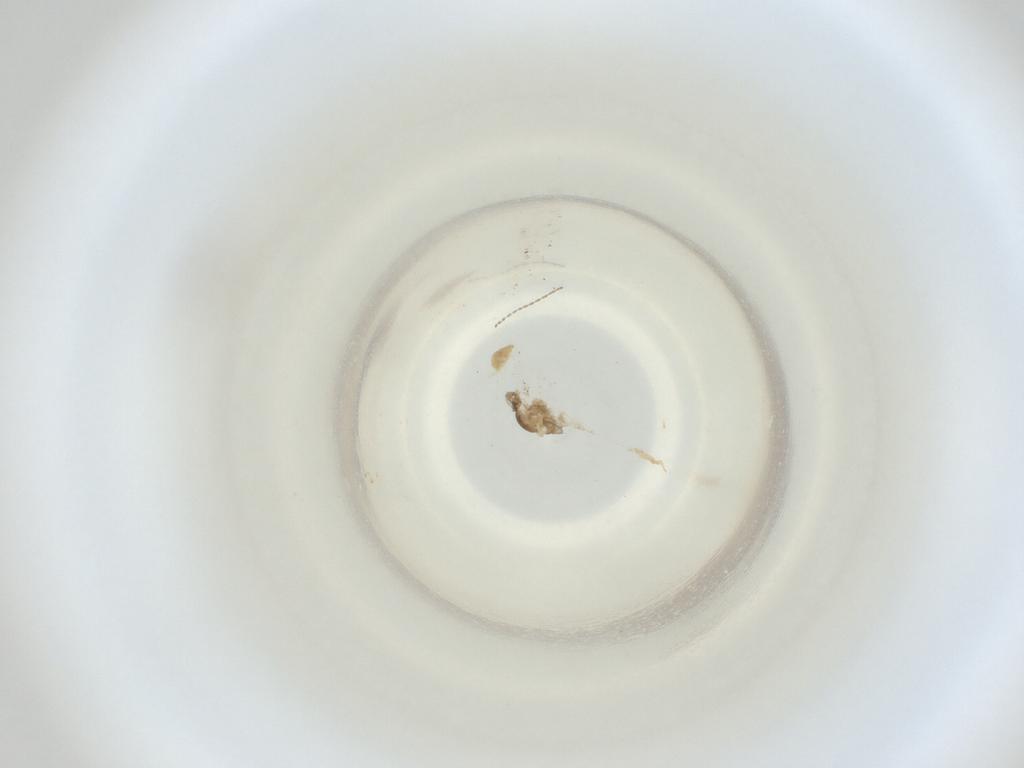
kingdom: Animalia
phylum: Arthropoda
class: Insecta
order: Diptera
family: Cecidomyiidae
